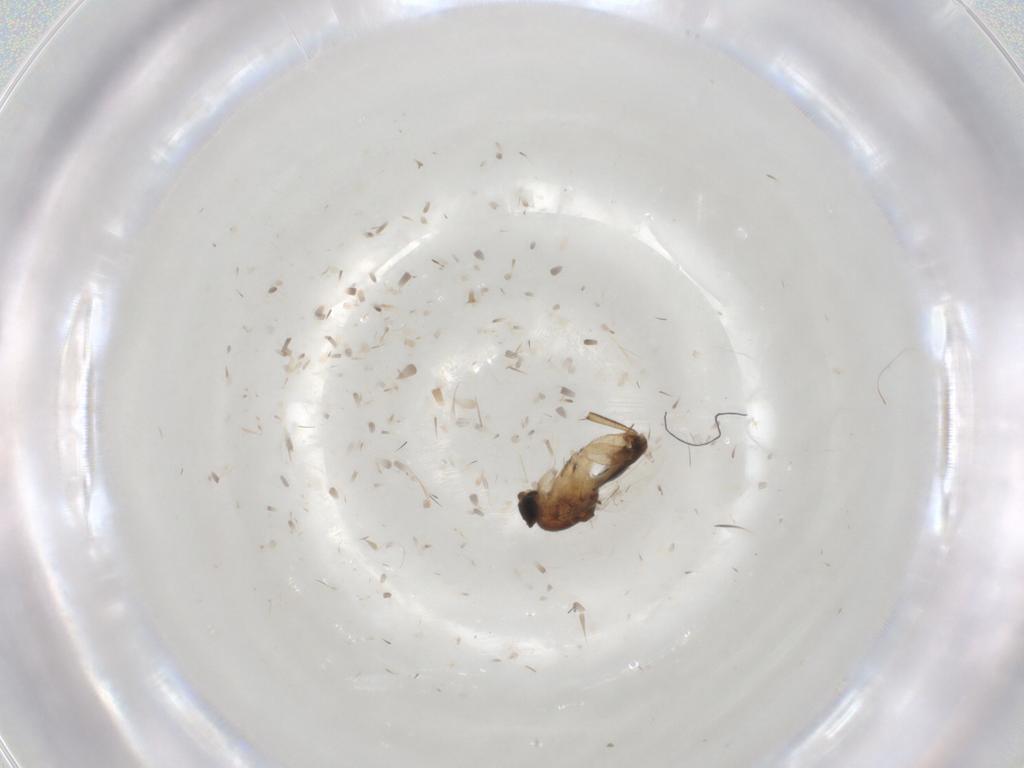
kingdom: Animalia
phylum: Arthropoda
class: Insecta
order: Diptera
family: Phoridae
